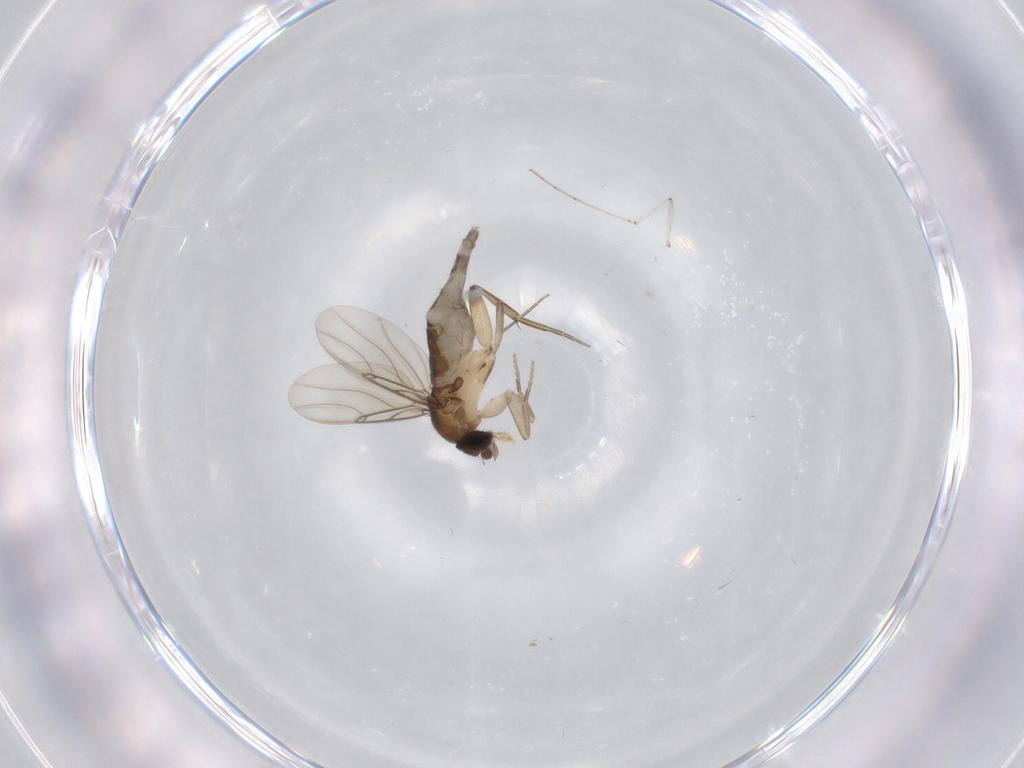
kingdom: Animalia
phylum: Arthropoda
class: Insecta
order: Diptera
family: Phoridae
